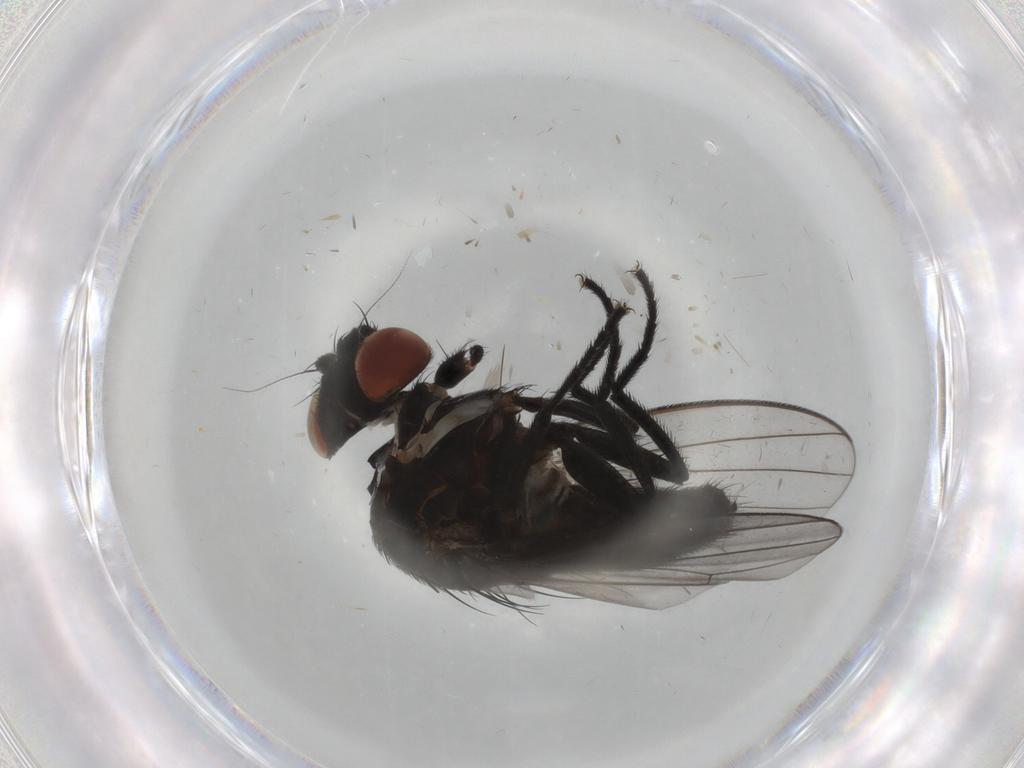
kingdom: Animalia
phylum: Arthropoda
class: Insecta
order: Diptera
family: Milichiidae
